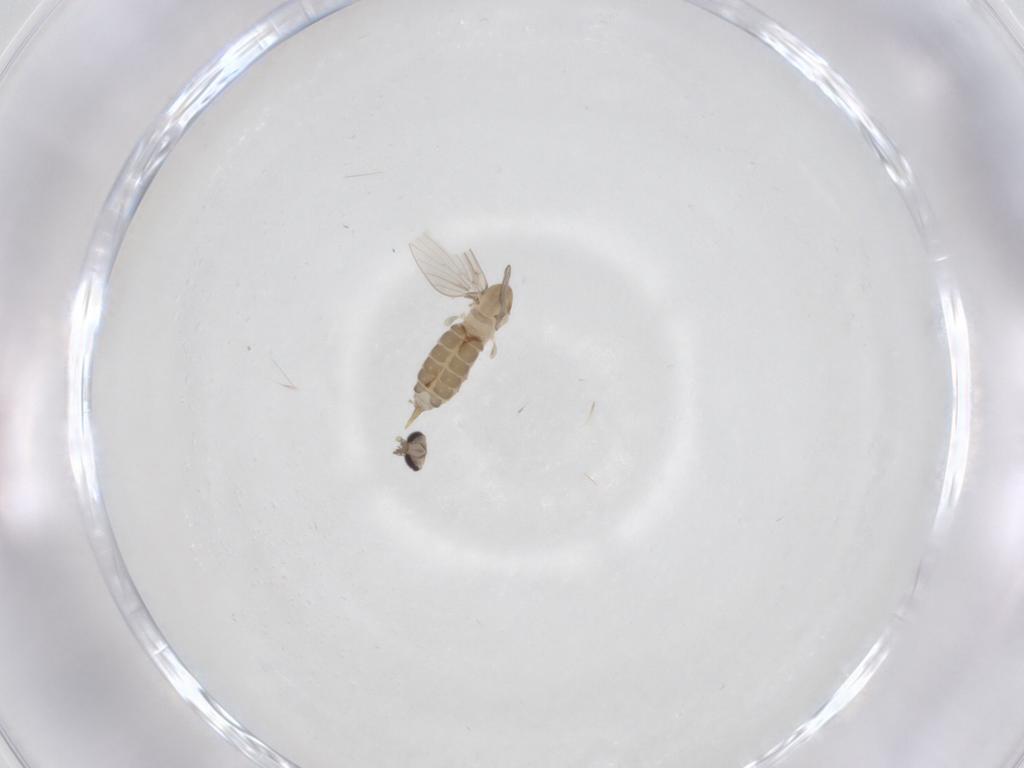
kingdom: Animalia
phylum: Arthropoda
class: Insecta
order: Diptera
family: Psychodidae
